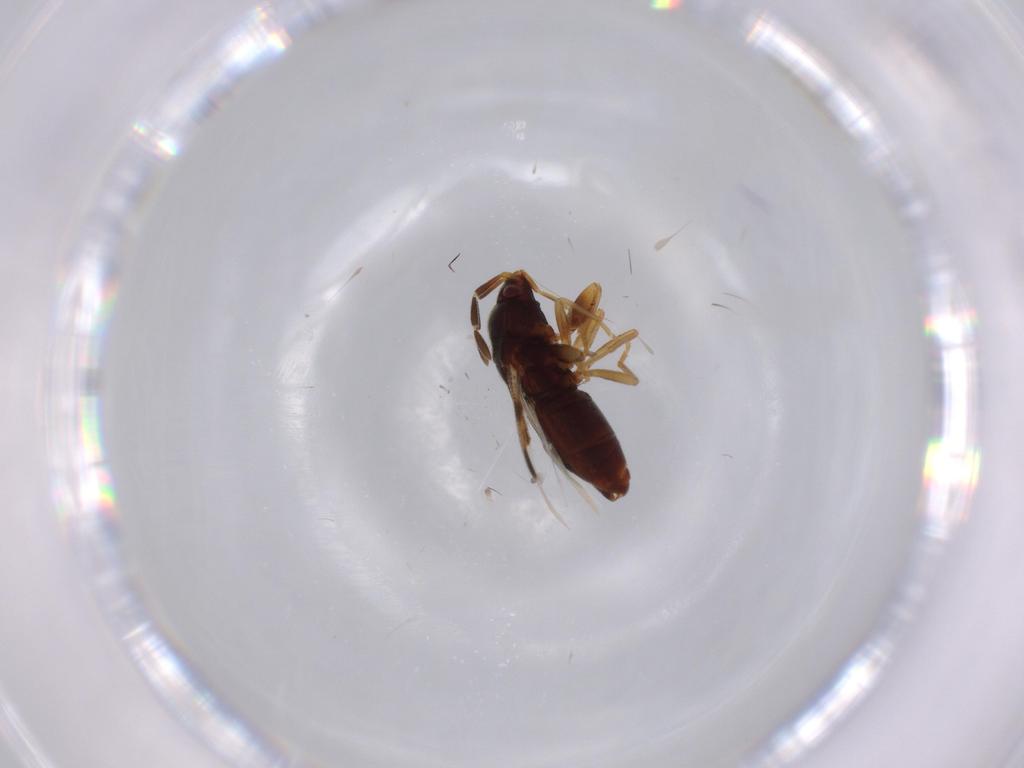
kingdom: Animalia
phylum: Arthropoda
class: Insecta
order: Hemiptera
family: Rhyparochromidae
